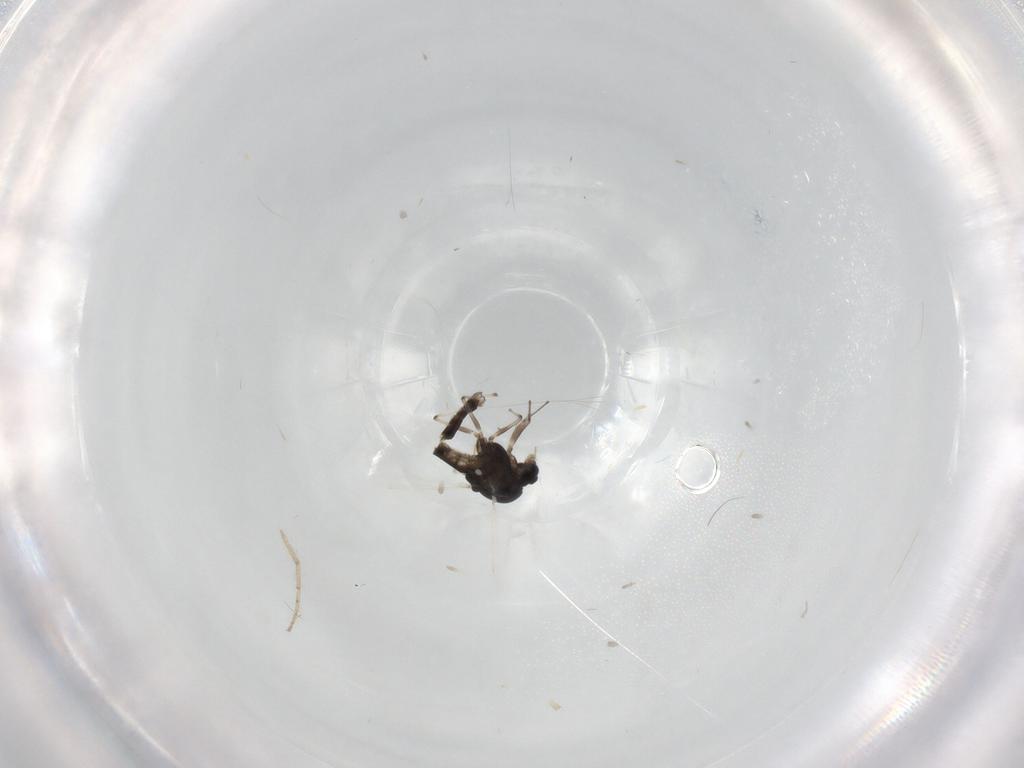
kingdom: Animalia
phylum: Arthropoda
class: Insecta
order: Diptera
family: Chironomidae
